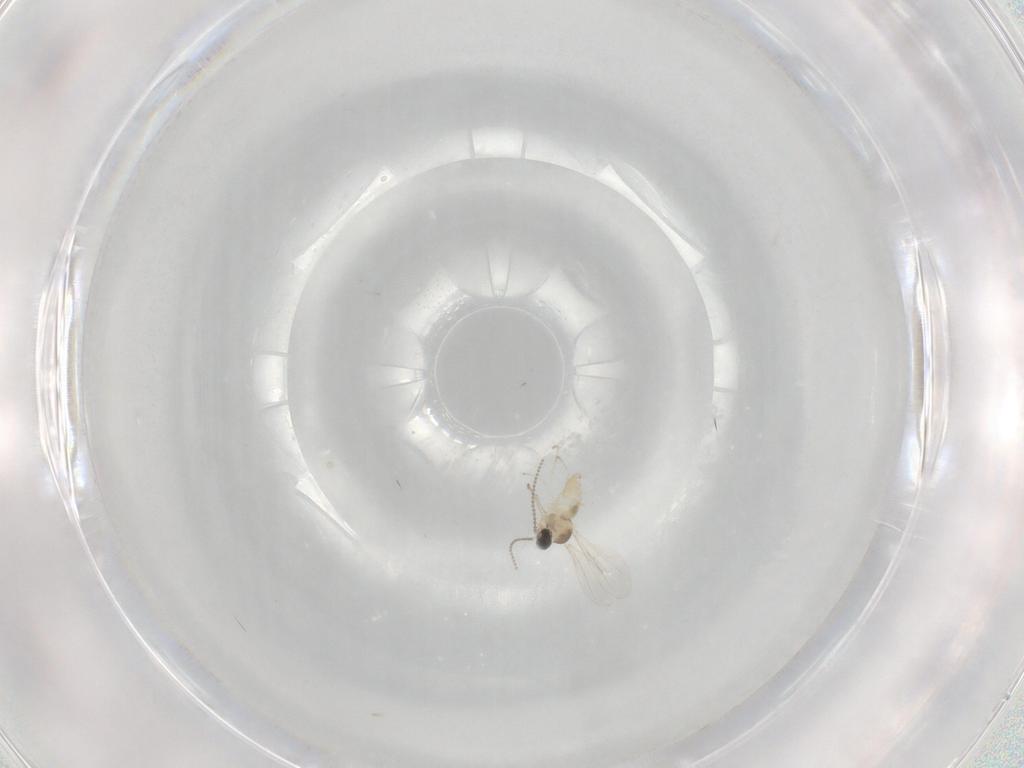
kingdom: Animalia
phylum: Arthropoda
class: Insecta
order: Diptera
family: Cecidomyiidae
